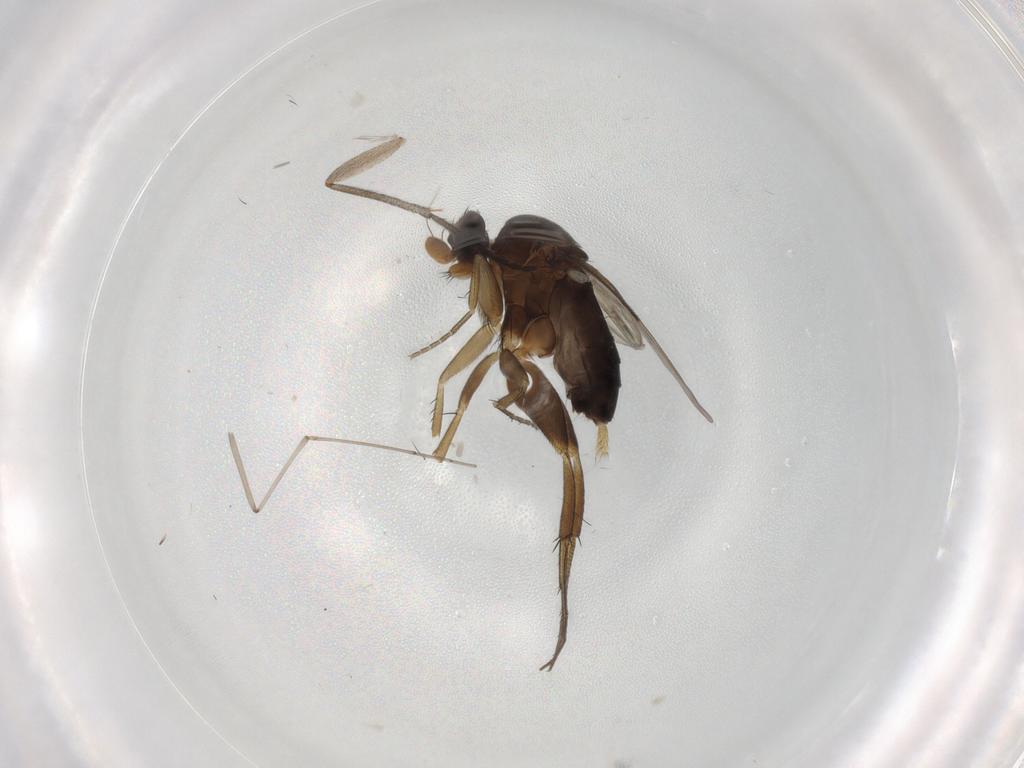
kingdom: Animalia
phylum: Arthropoda
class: Insecta
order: Diptera
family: Phoridae
